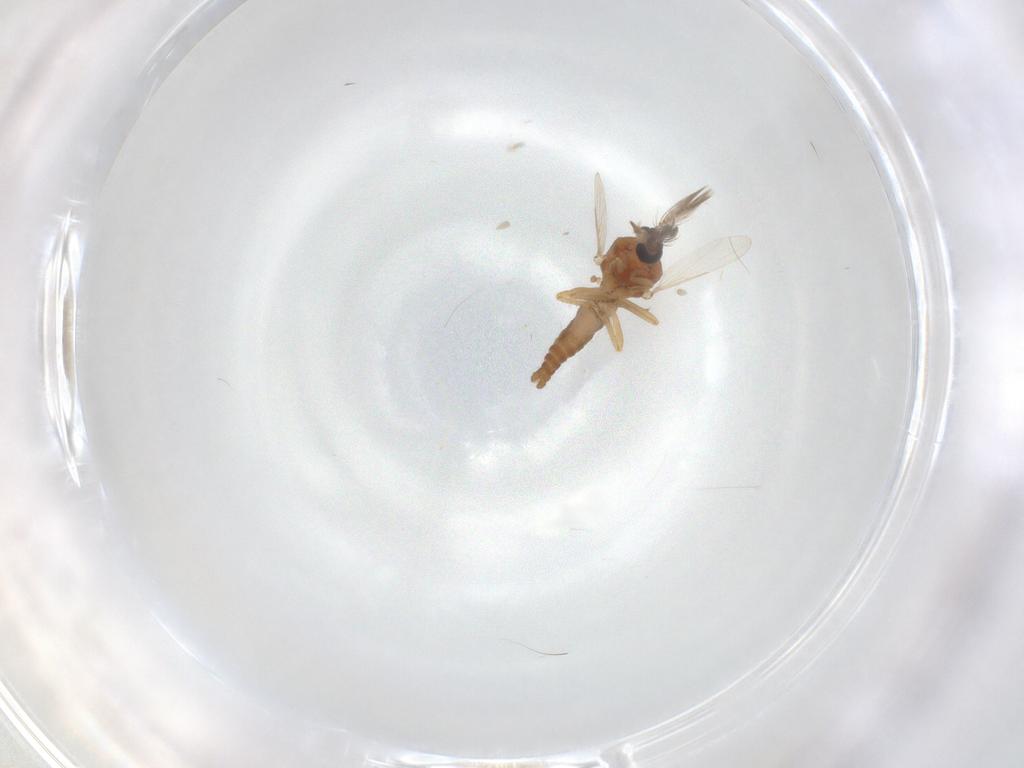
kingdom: Animalia
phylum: Arthropoda
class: Insecta
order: Diptera
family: Ceratopogonidae
